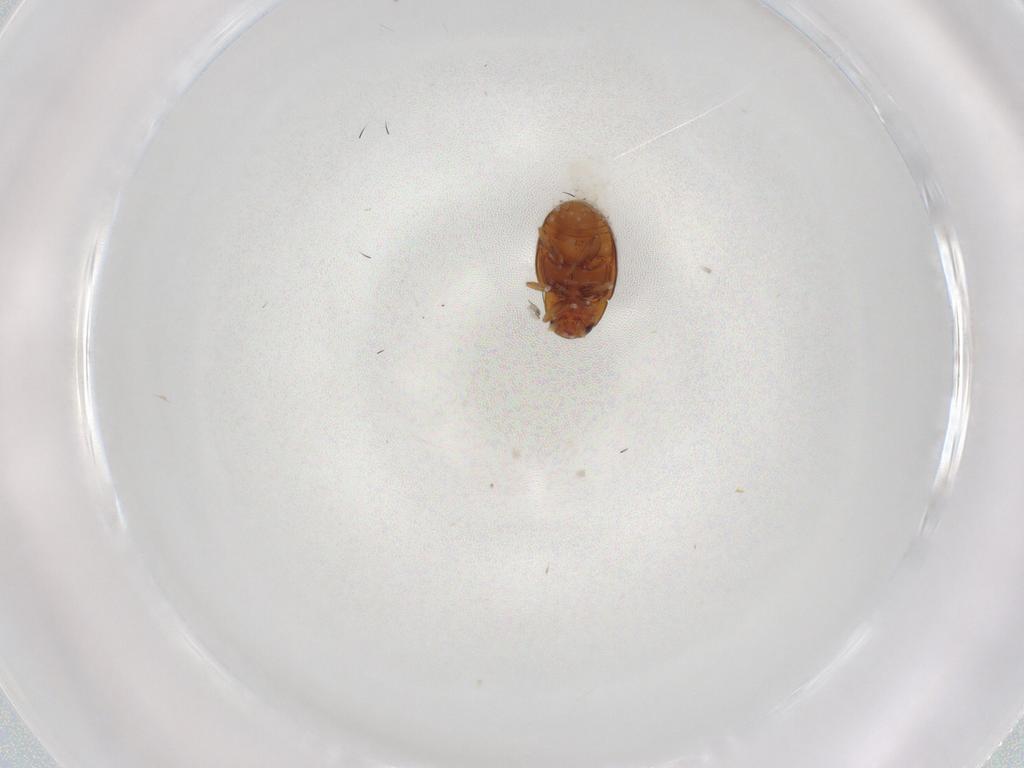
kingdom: Animalia
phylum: Arthropoda
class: Insecta
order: Coleoptera
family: Coccinellidae
